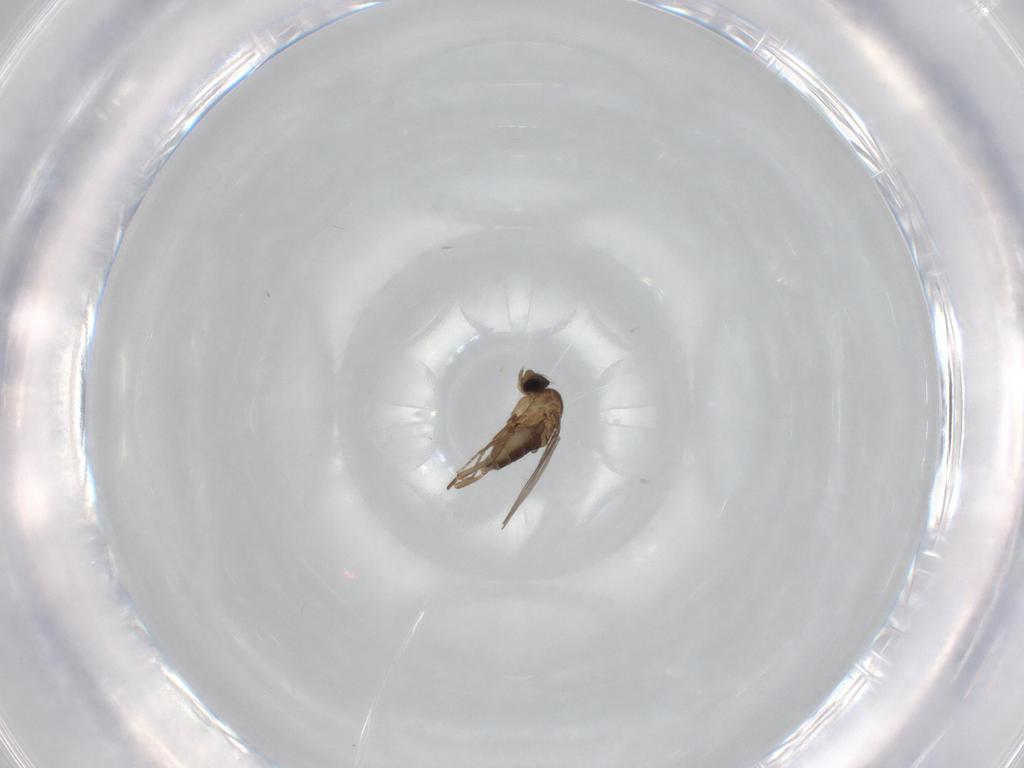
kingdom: Animalia
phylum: Arthropoda
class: Insecta
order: Diptera
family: Phoridae
